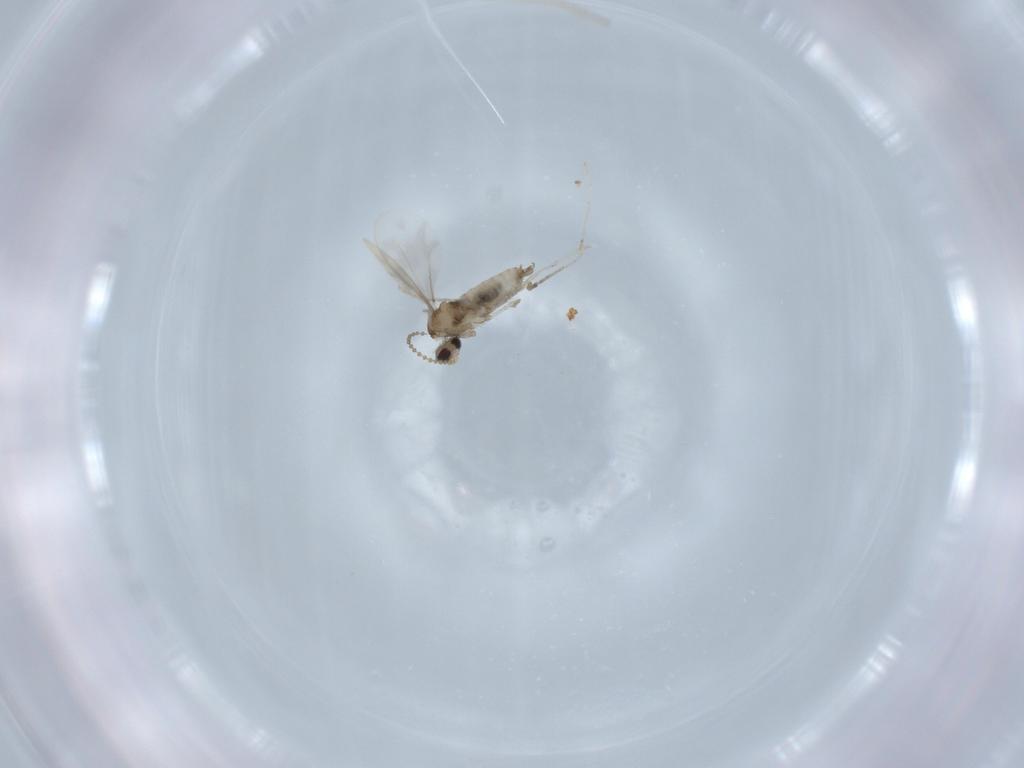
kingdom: Animalia
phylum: Arthropoda
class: Insecta
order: Diptera
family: Cecidomyiidae
